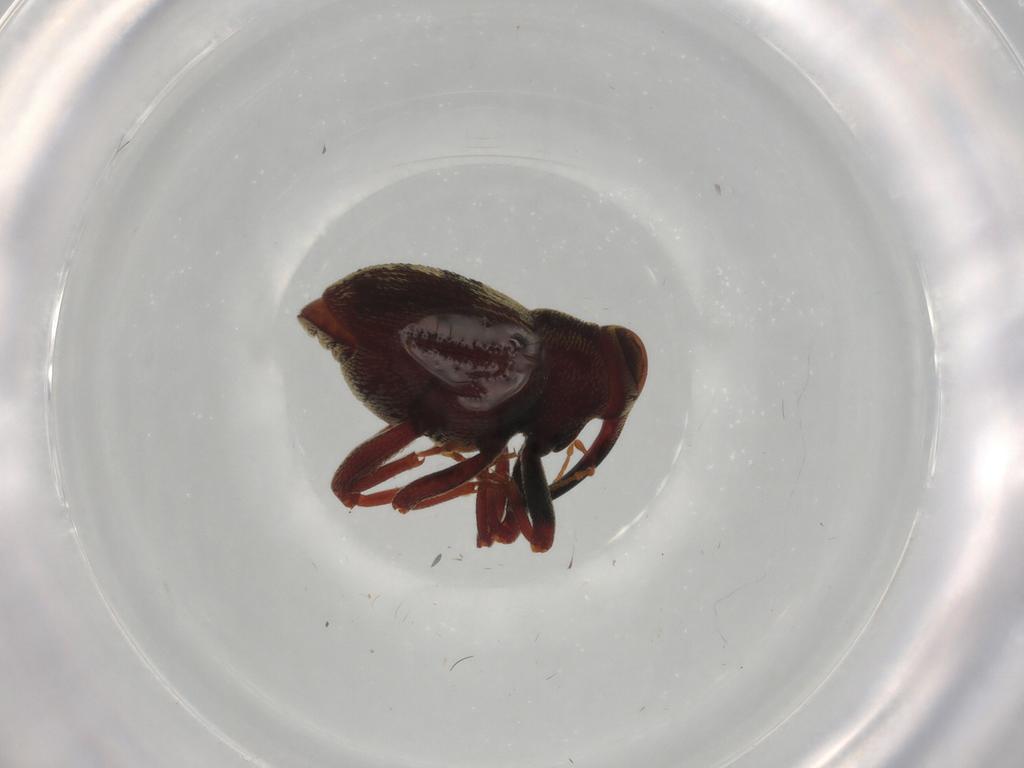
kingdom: Animalia
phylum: Arthropoda
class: Insecta
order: Coleoptera
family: Curculionidae
